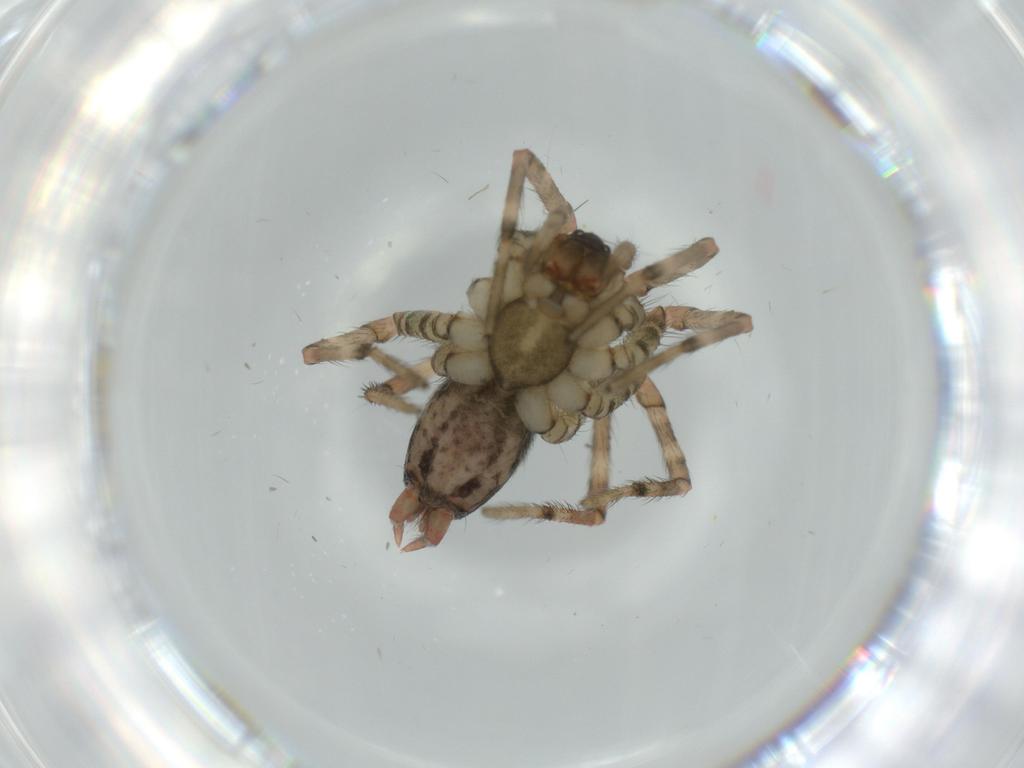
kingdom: Animalia
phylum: Arthropoda
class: Arachnida
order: Araneae
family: Agelenidae
